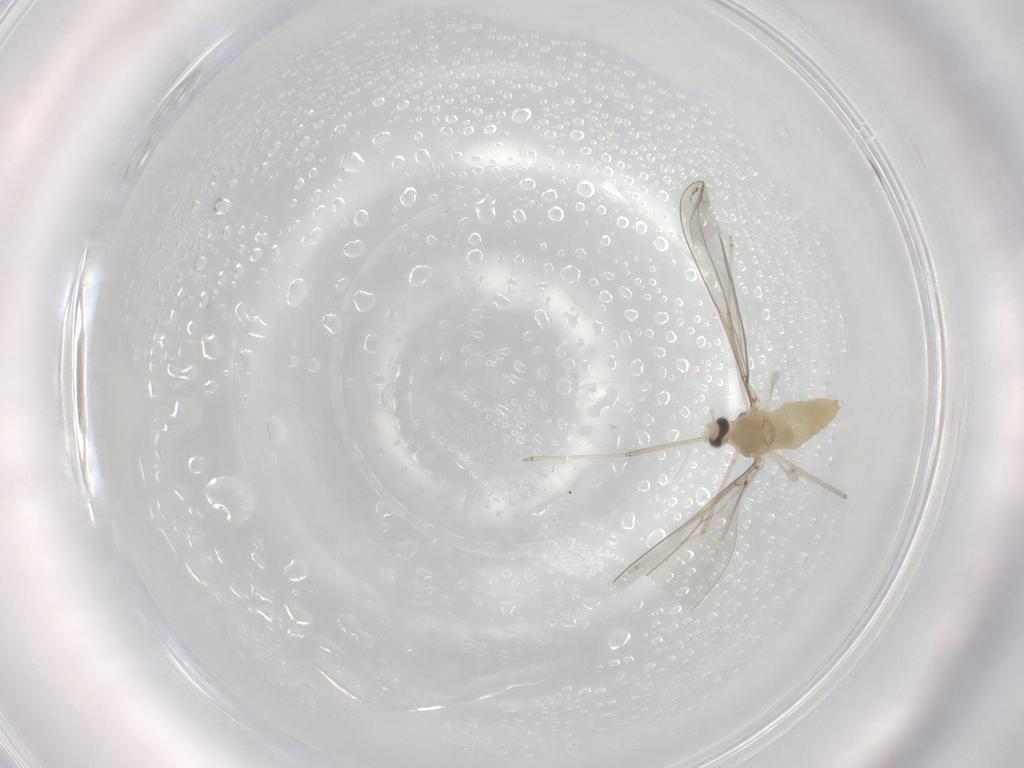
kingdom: Animalia
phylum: Arthropoda
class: Insecta
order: Diptera
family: Cecidomyiidae
